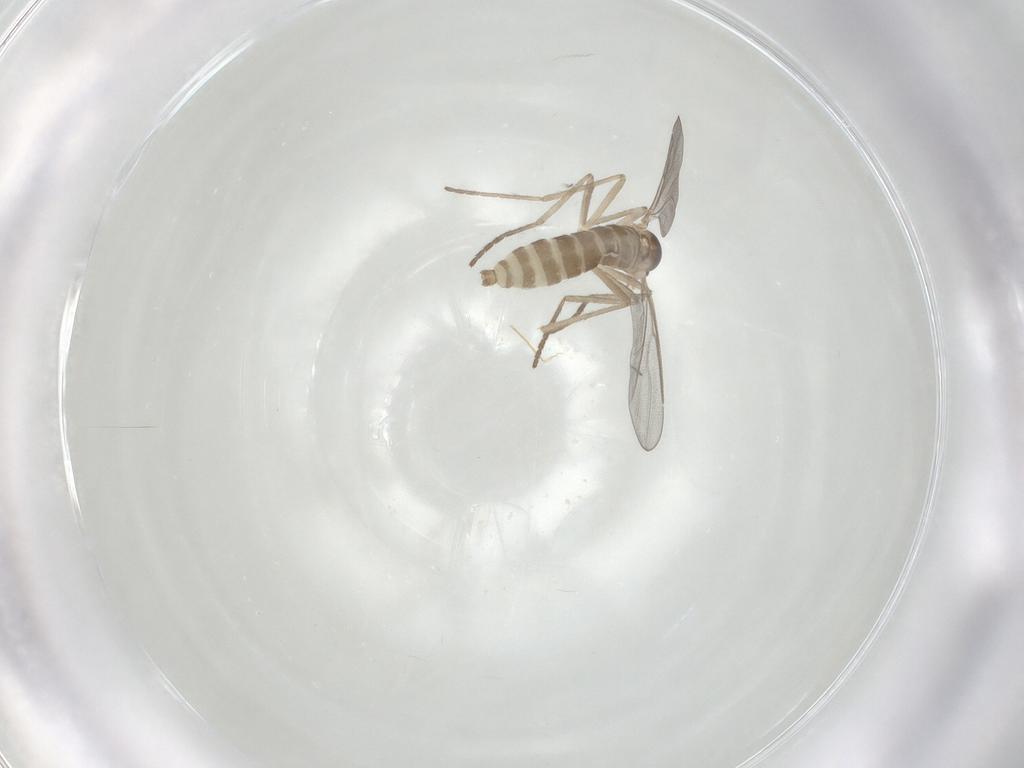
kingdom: Animalia
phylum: Arthropoda
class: Insecta
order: Diptera
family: Cecidomyiidae
